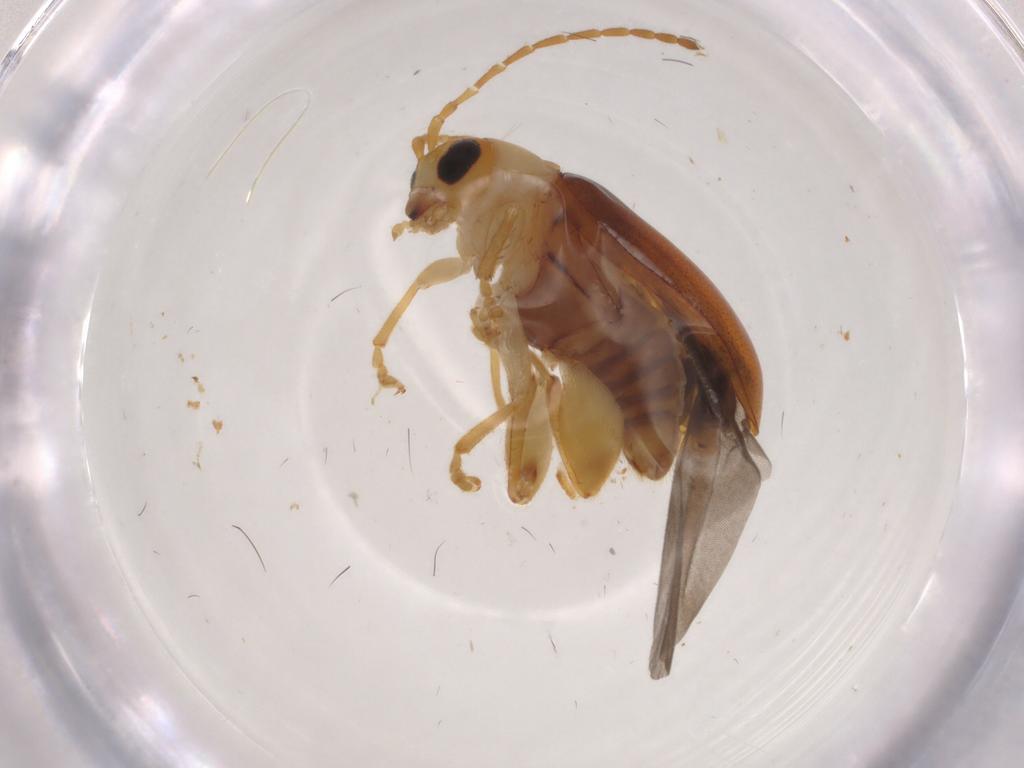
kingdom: Animalia
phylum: Arthropoda
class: Insecta
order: Coleoptera
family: Chrysomelidae
